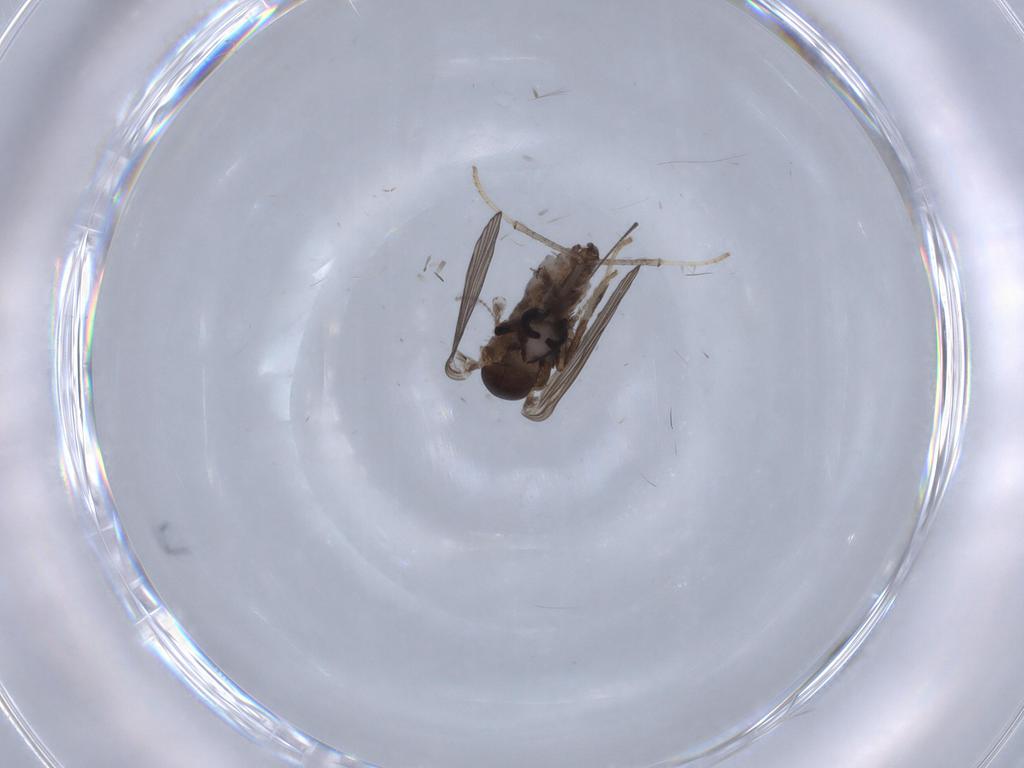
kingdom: Animalia
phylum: Arthropoda
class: Insecta
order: Diptera
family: Psychodidae
